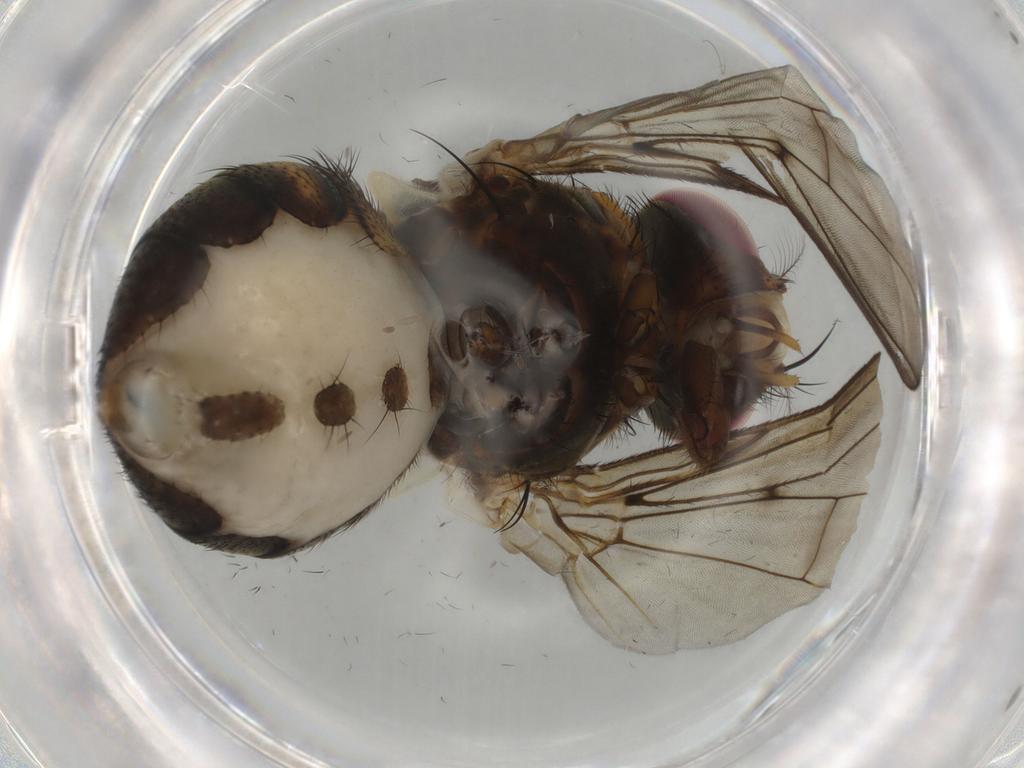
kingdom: Animalia
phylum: Arthropoda
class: Insecta
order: Diptera
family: Muscidae
